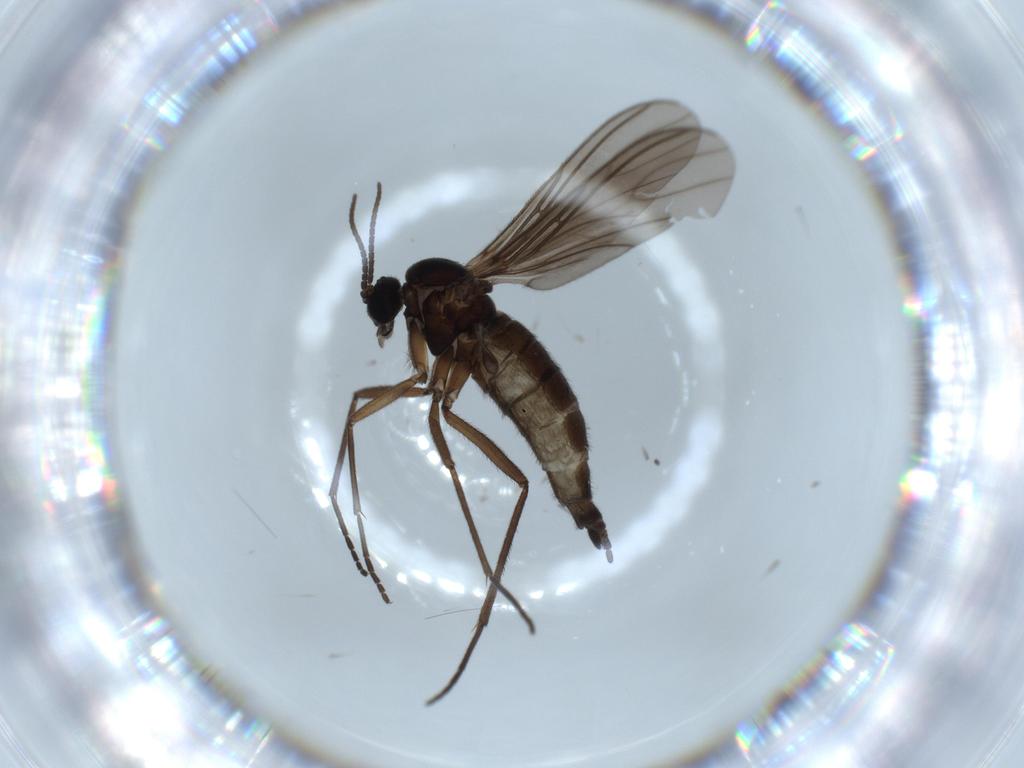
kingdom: Animalia
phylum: Arthropoda
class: Insecta
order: Diptera
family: Sciaridae
